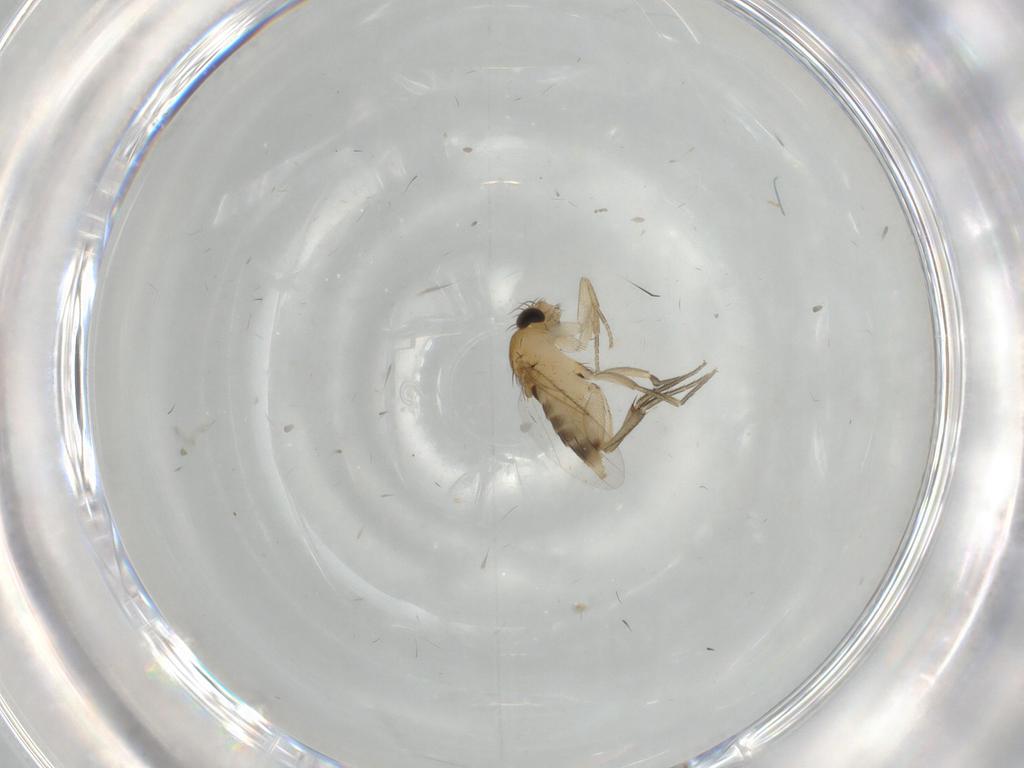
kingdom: Animalia
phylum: Arthropoda
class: Insecta
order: Diptera
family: Phoridae
